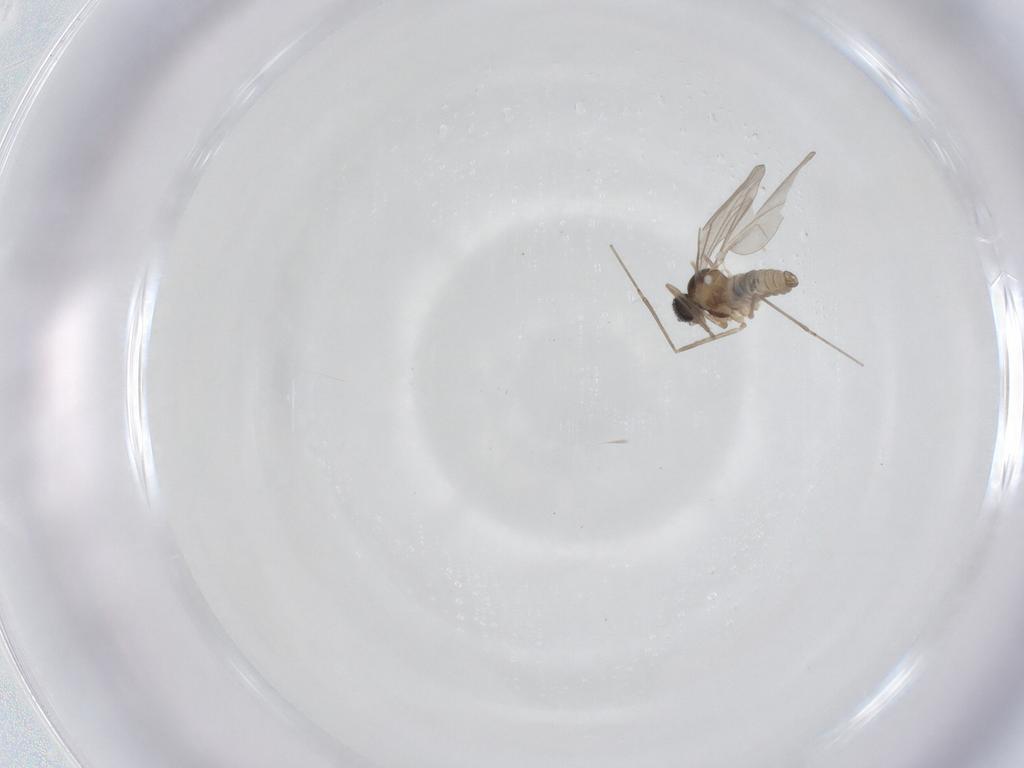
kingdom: Animalia
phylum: Arthropoda
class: Insecta
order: Diptera
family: Cecidomyiidae
